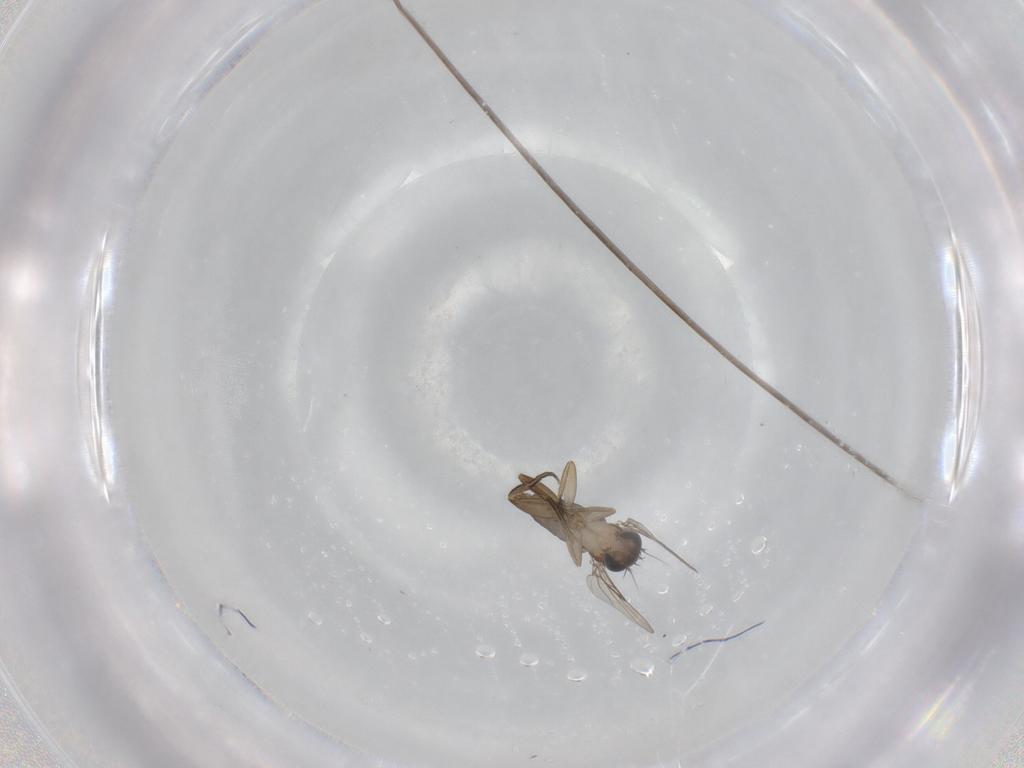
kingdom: Animalia
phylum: Arthropoda
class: Insecta
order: Diptera
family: Phoridae
